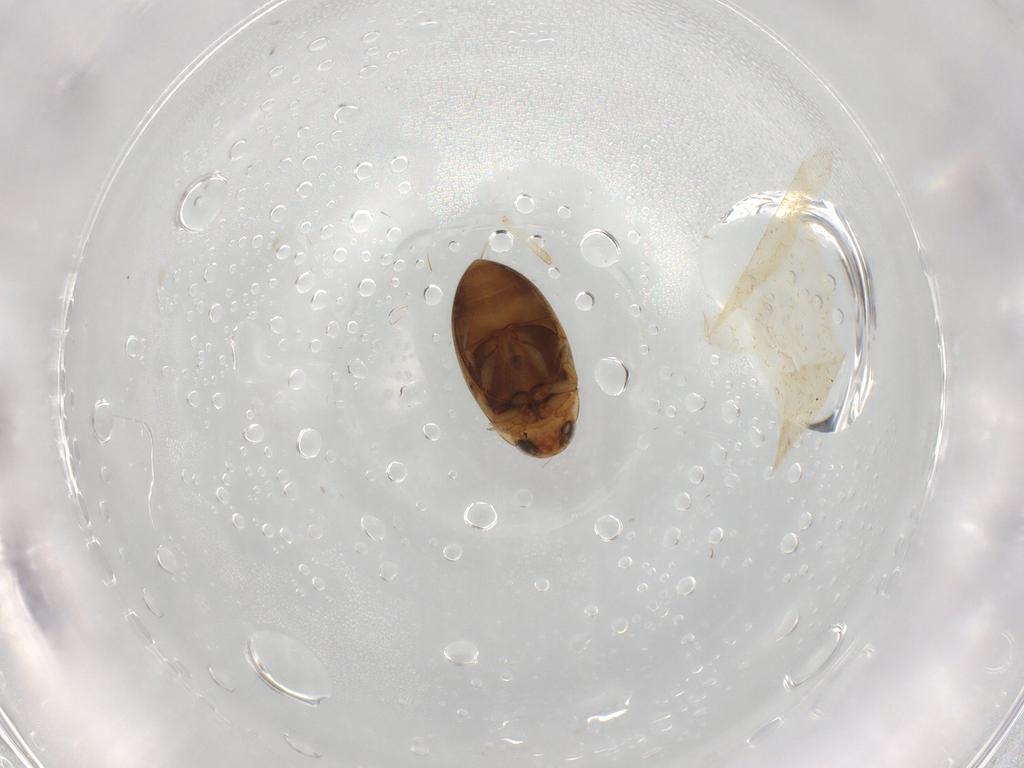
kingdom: Animalia
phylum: Arthropoda
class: Insecta
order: Coleoptera
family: Dytiscidae
